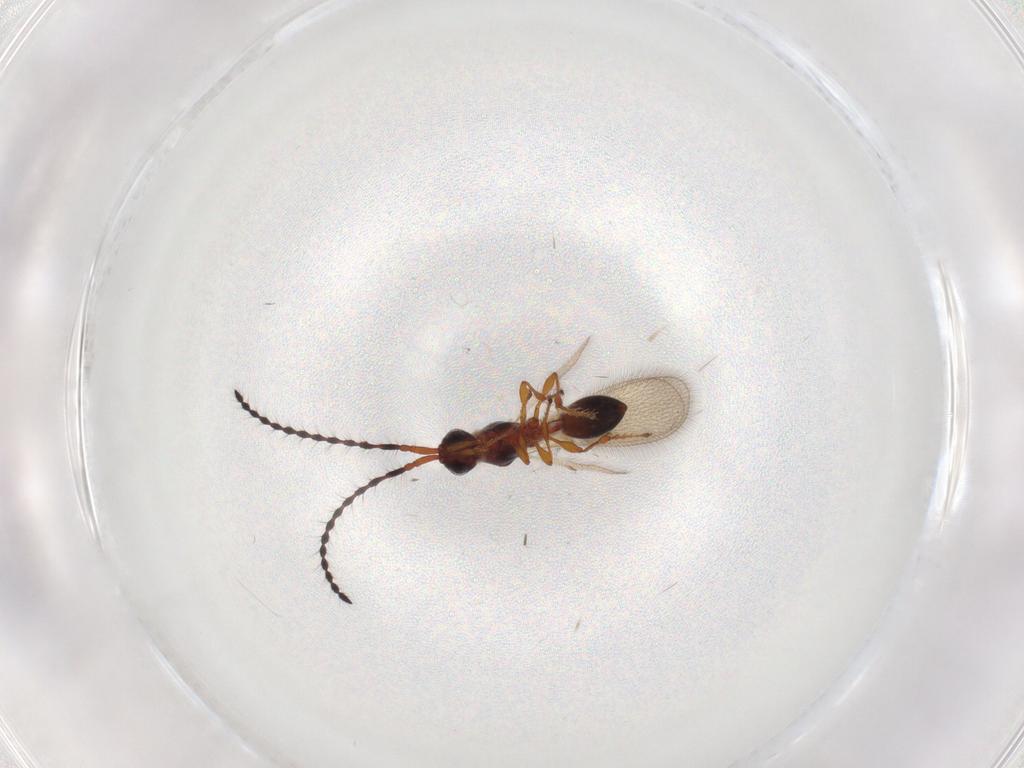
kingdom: Animalia
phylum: Arthropoda
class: Insecta
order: Hymenoptera
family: Diapriidae
